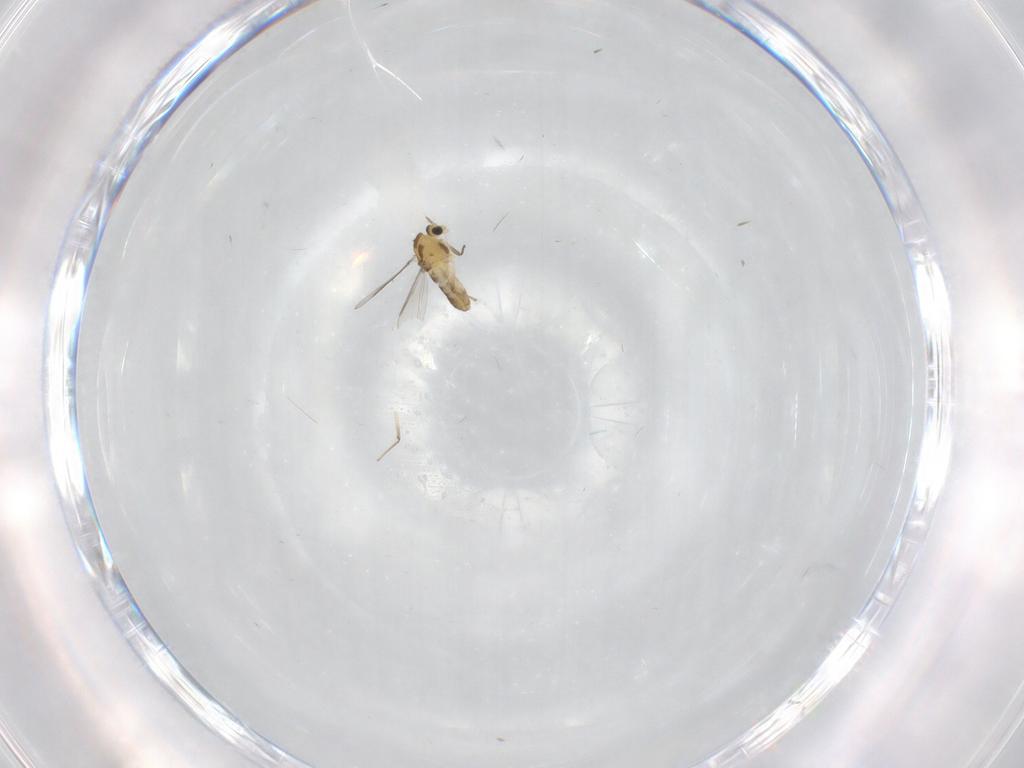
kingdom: Animalia
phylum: Arthropoda
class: Insecta
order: Diptera
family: Chironomidae
